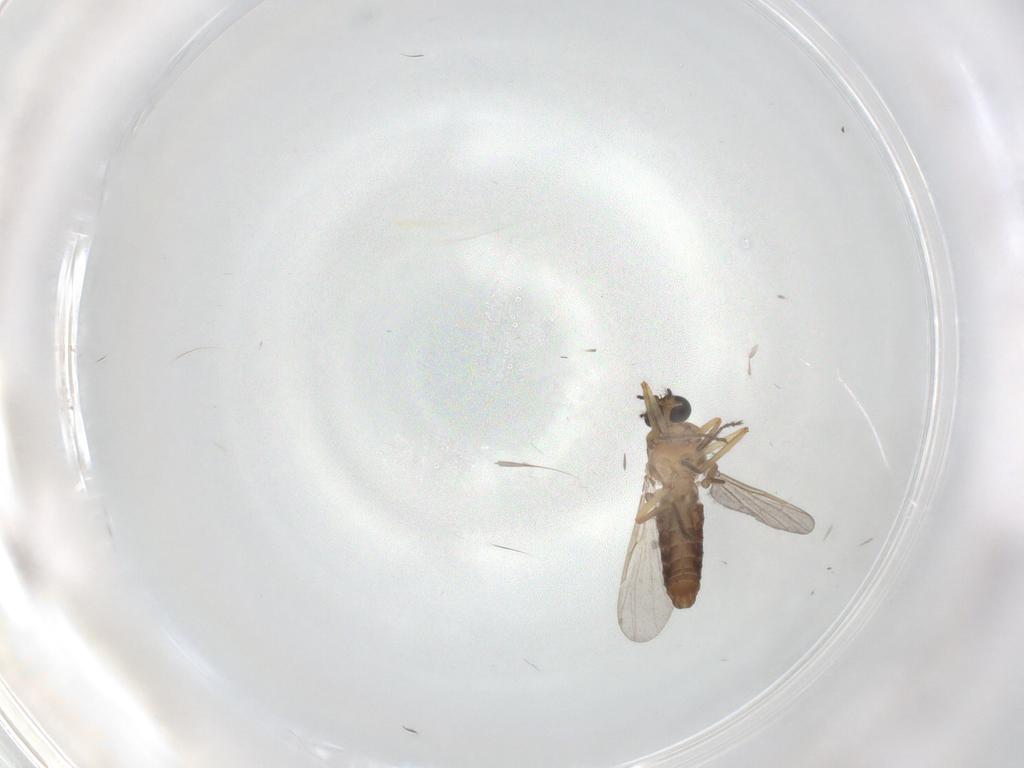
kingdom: Animalia
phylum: Arthropoda
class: Insecta
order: Diptera
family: Ceratopogonidae
